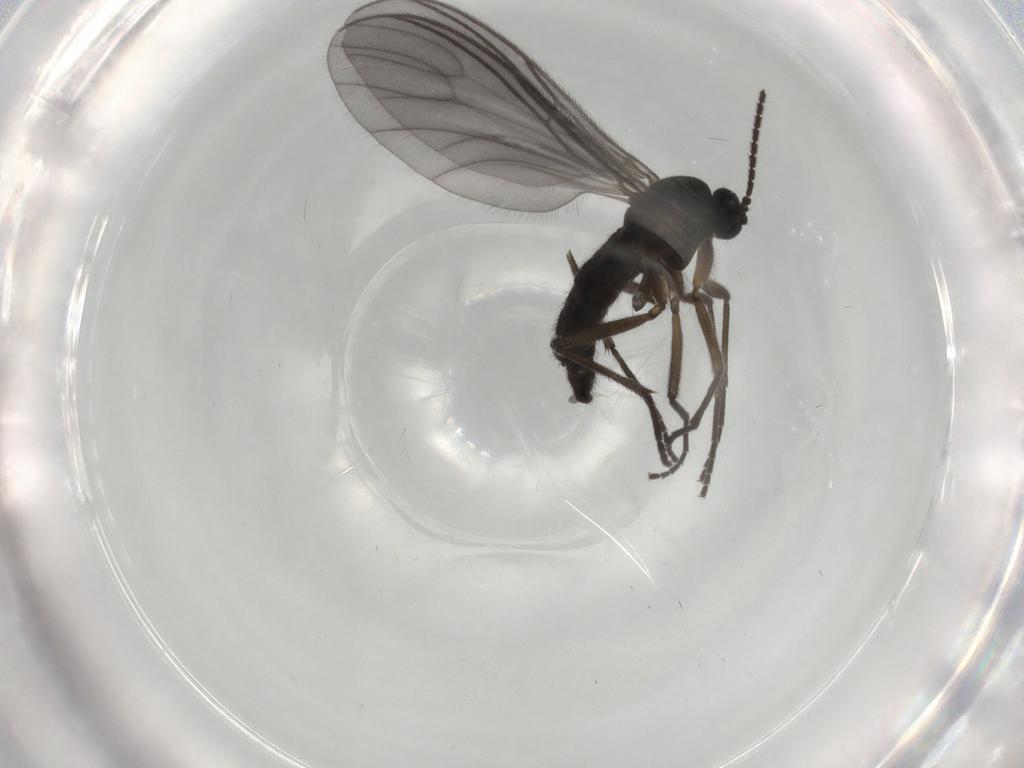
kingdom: Animalia
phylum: Arthropoda
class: Insecta
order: Diptera
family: Sciaridae
